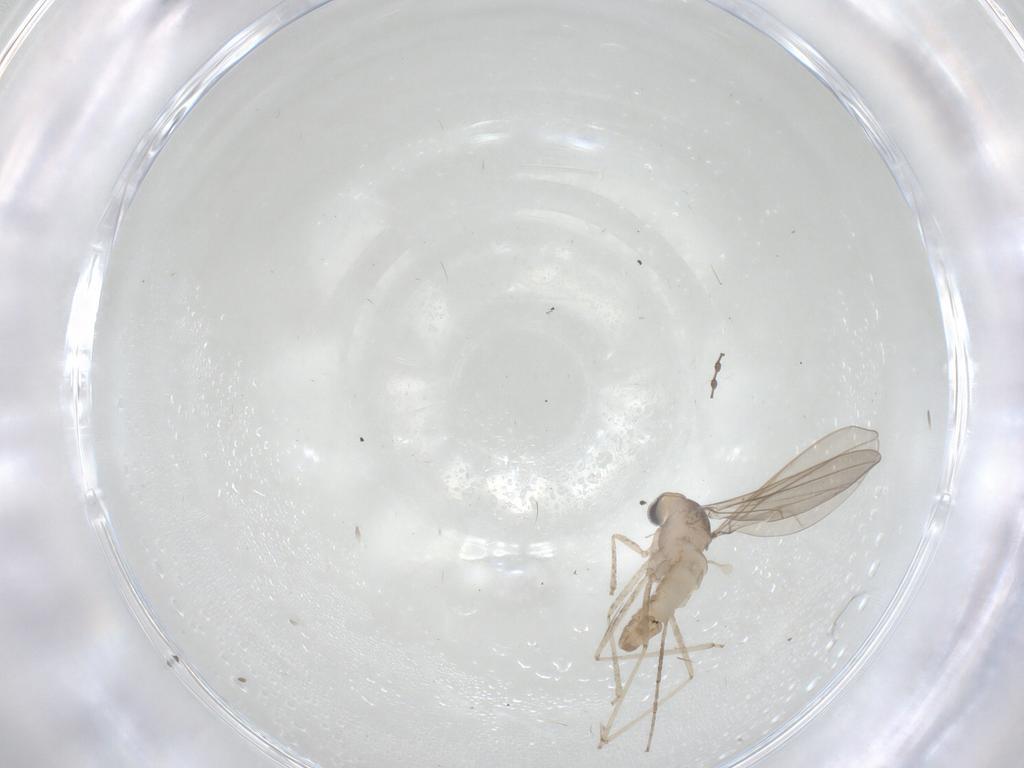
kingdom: Animalia
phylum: Arthropoda
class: Insecta
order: Diptera
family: Cecidomyiidae
